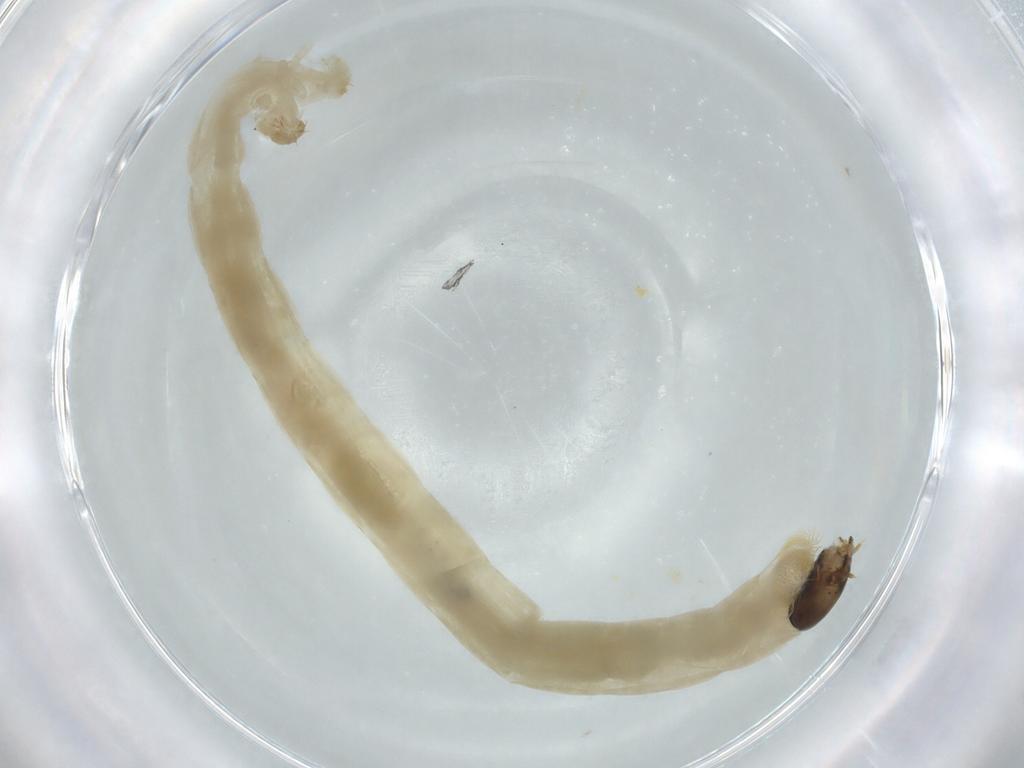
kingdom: Animalia
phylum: Arthropoda
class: Insecta
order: Diptera
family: Chironomidae
